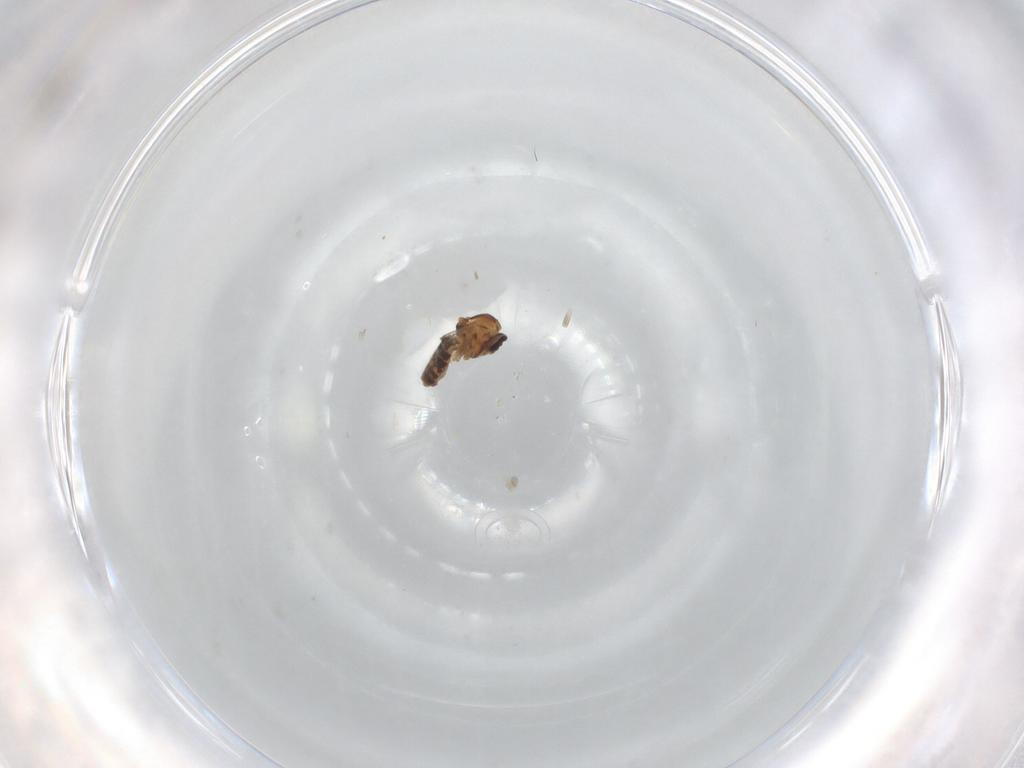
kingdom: Animalia
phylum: Arthropoda
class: Insecta
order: Diptera
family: Ceratopogonidae
